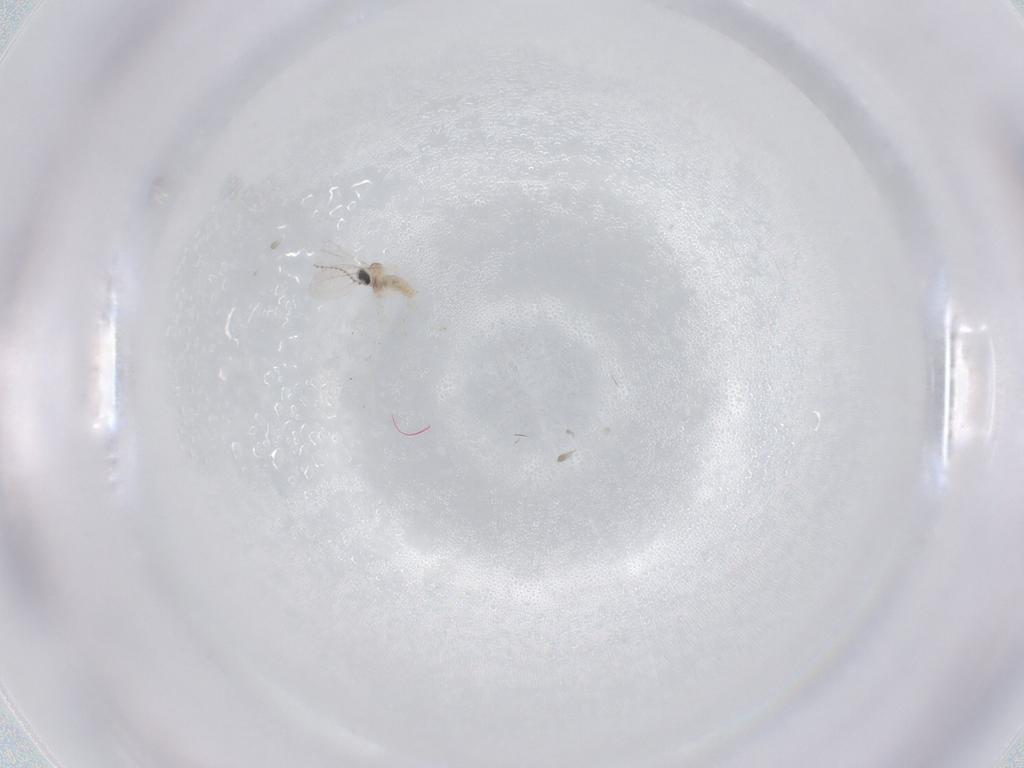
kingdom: Animalia
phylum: Arthropoda
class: Insecta
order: Diptera
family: Phoridae
